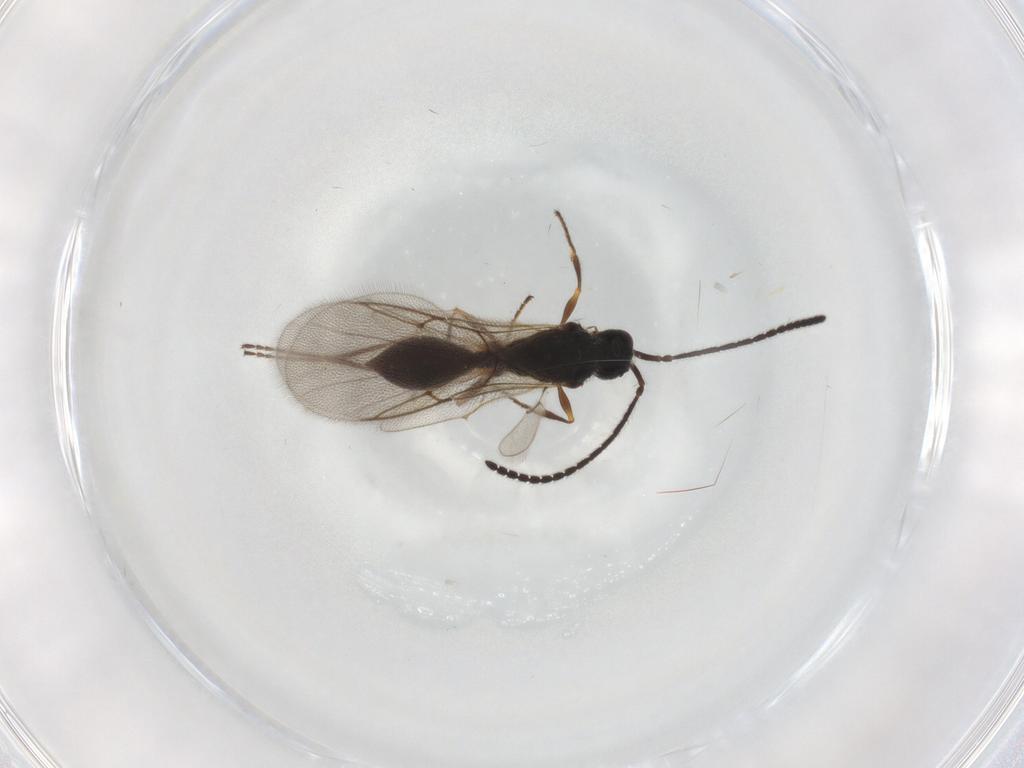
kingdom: Animalia
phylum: Arthropoda
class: Insecta
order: Hymenoptera
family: Diapriidae
